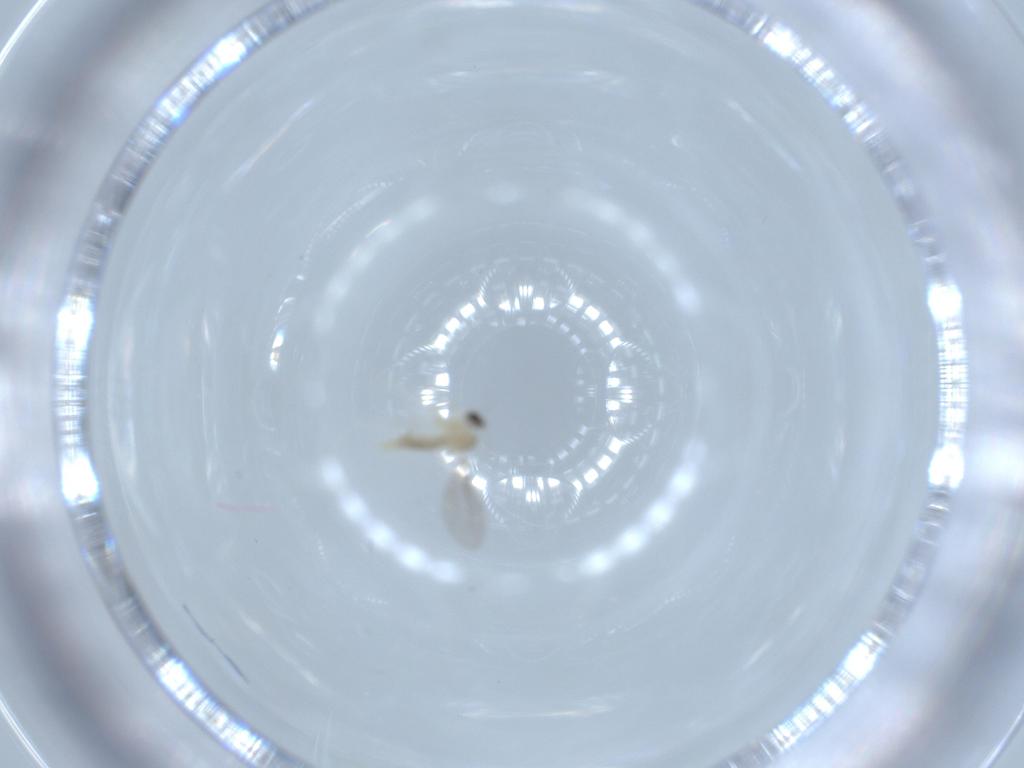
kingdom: Animalia
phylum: Arthropoda
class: Insecta
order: Diptera
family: Cecidomyiidae
